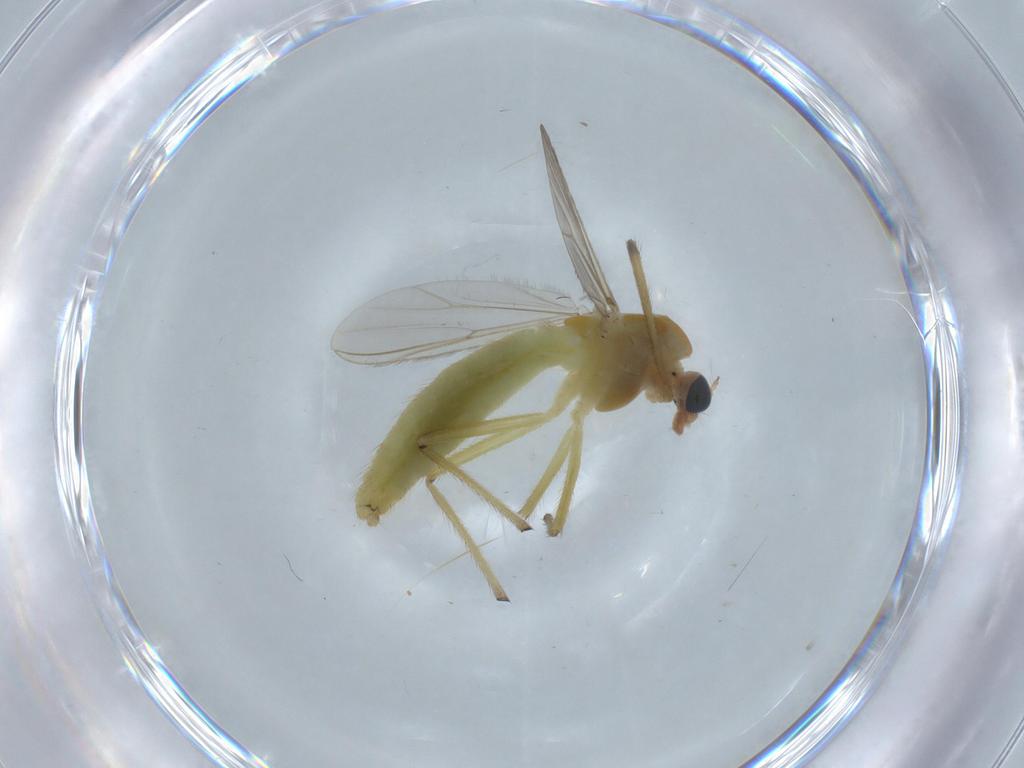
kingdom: Animalia
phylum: Arthropoda
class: Insecta
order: Diptera
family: Chironomidae
